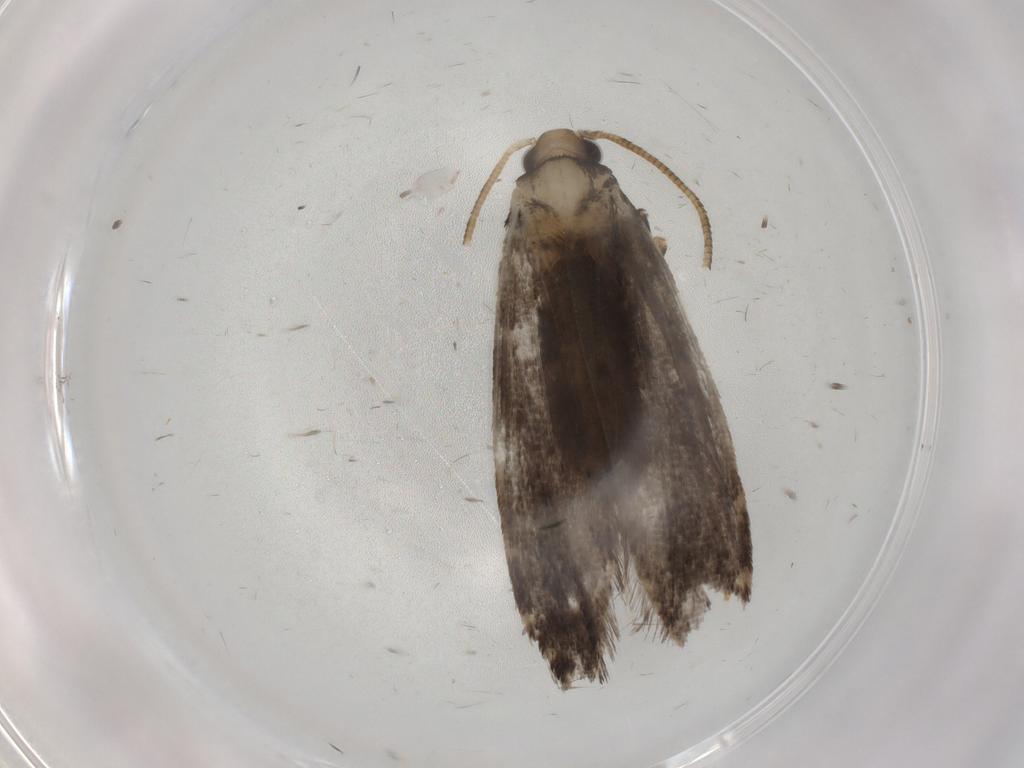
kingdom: Animalia
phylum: Arthropoda
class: Insecta
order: Lepidoptera
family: Tineidae
